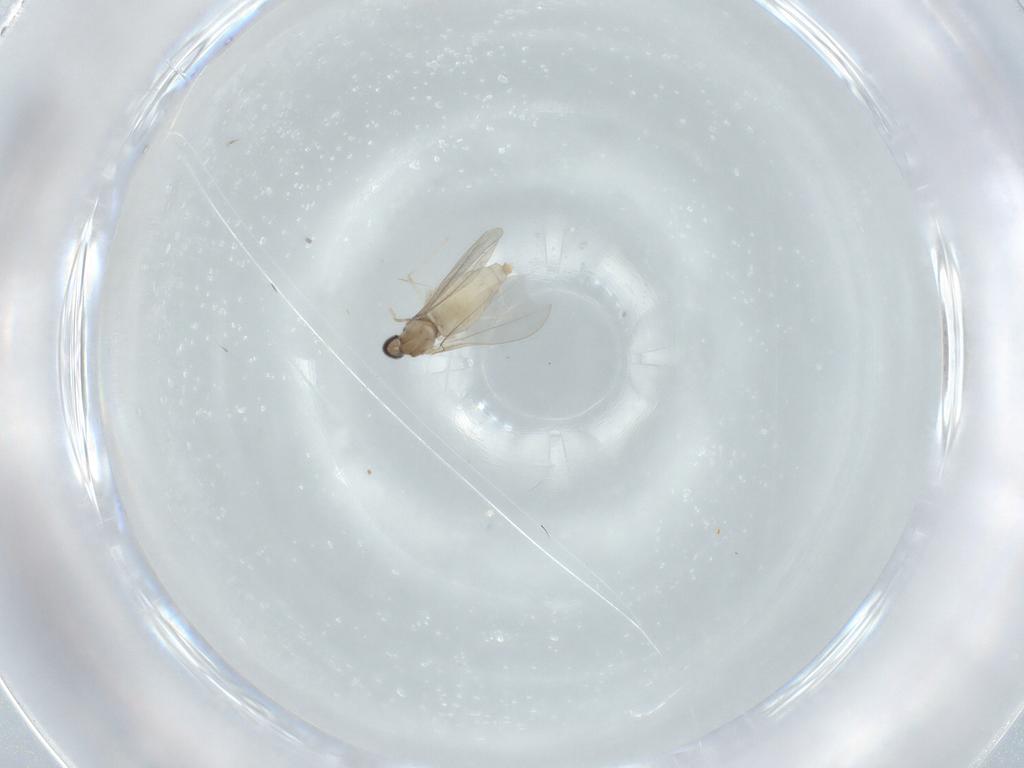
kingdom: Animalia
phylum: Arthropoda
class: Insecta
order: Diptera
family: Cecidomyiidae
